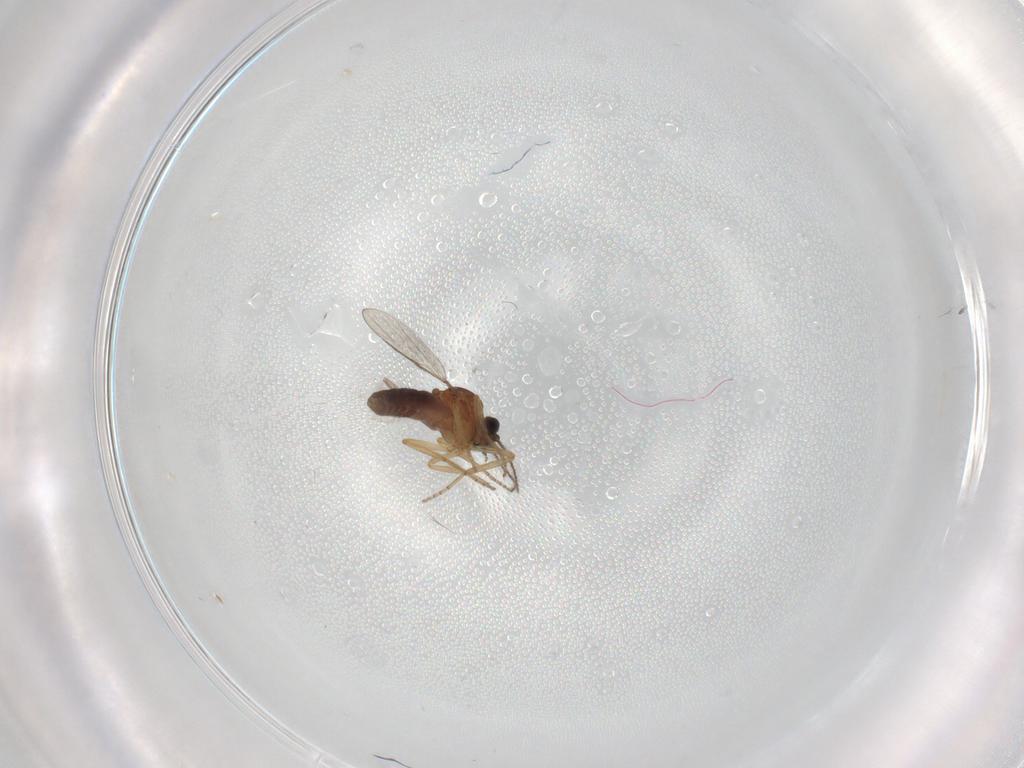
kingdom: Animalia
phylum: Arthropoda
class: Insecta
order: Diptera
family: Ceratopogonidae
